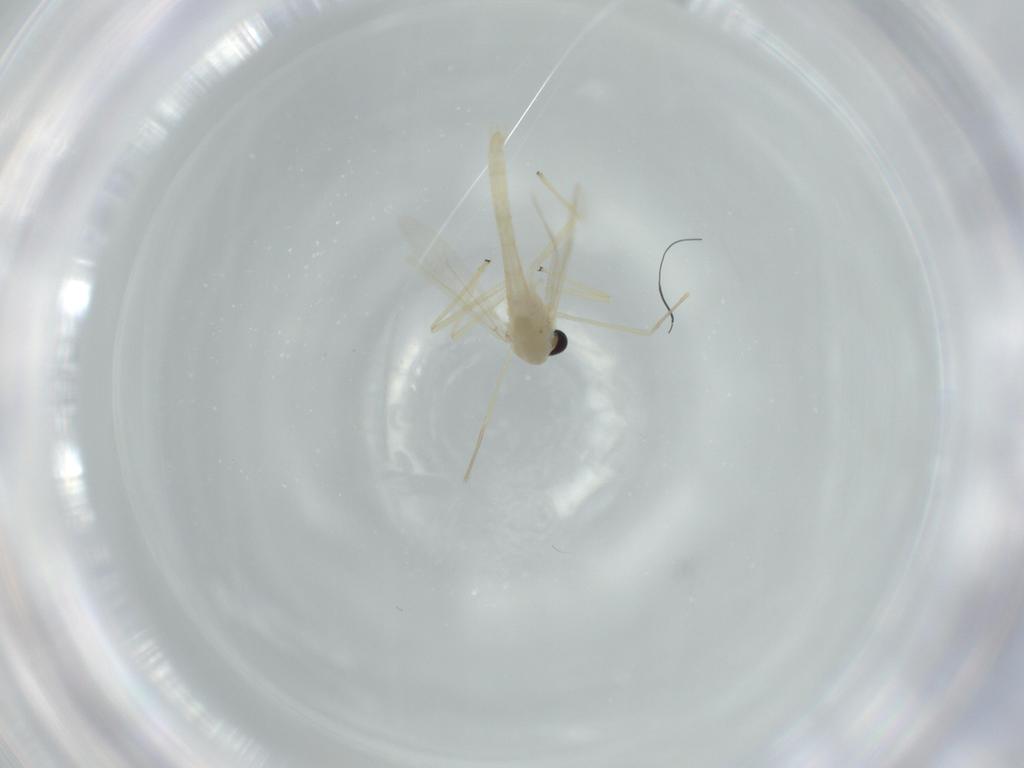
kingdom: Animalia
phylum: Arthropoda
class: Insecta
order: Diptera
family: Chironomidae
